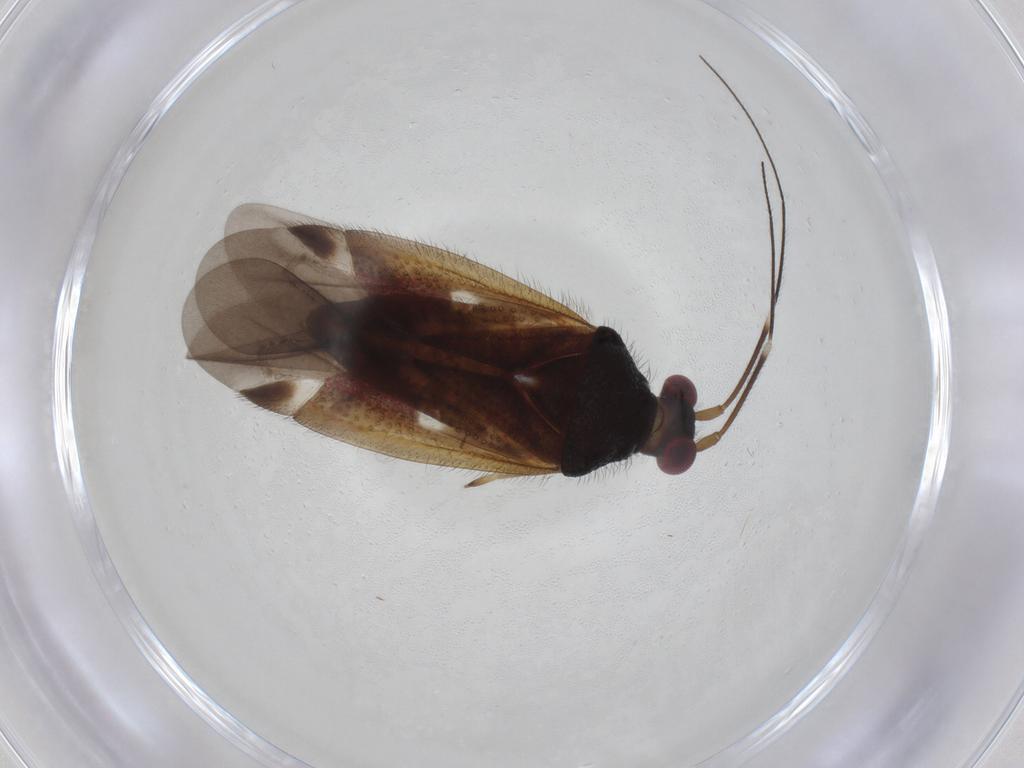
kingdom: Animalia
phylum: Arthropoda
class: Insecta
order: Hemiptera
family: Miridae
